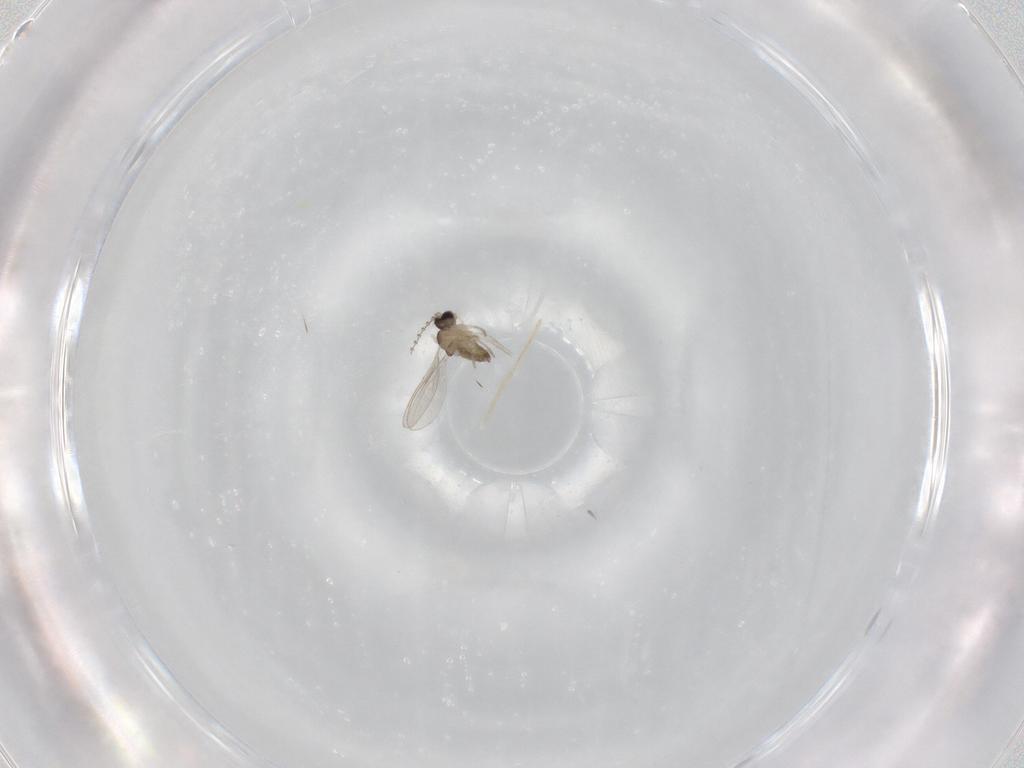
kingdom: Animalia
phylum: Arthropoda
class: Insecta
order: Diptera
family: Cecidomyiidae
